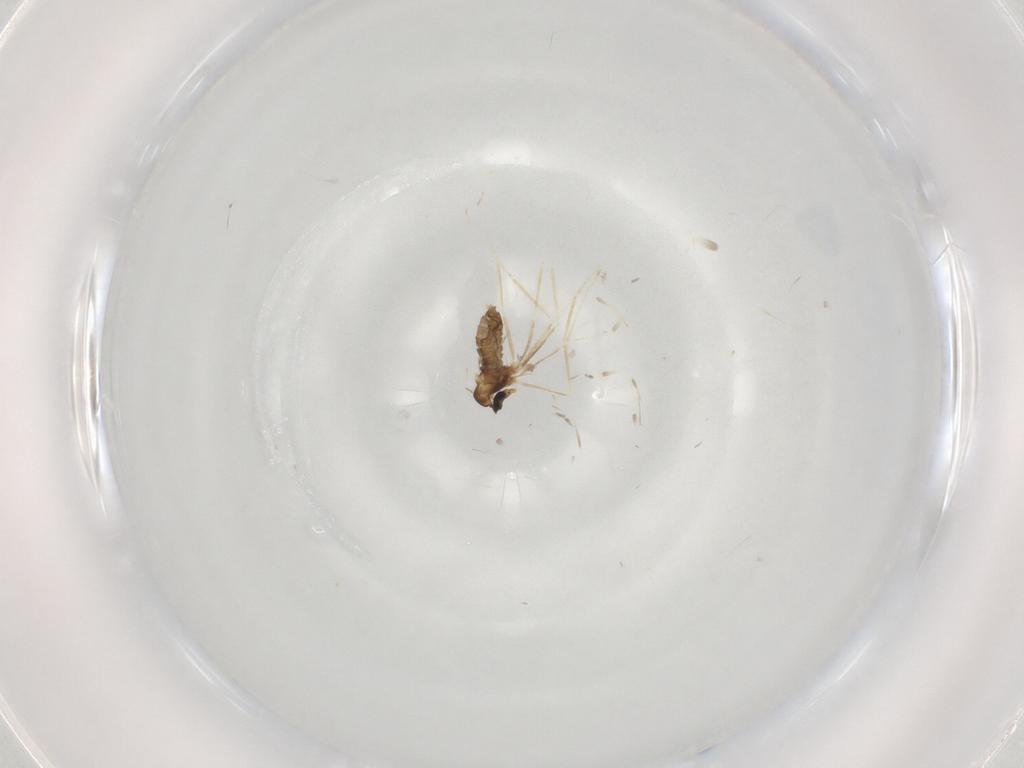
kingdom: Animalia
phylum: Arthropoda
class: Insecta
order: Diptera
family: Cecidomyiidae
